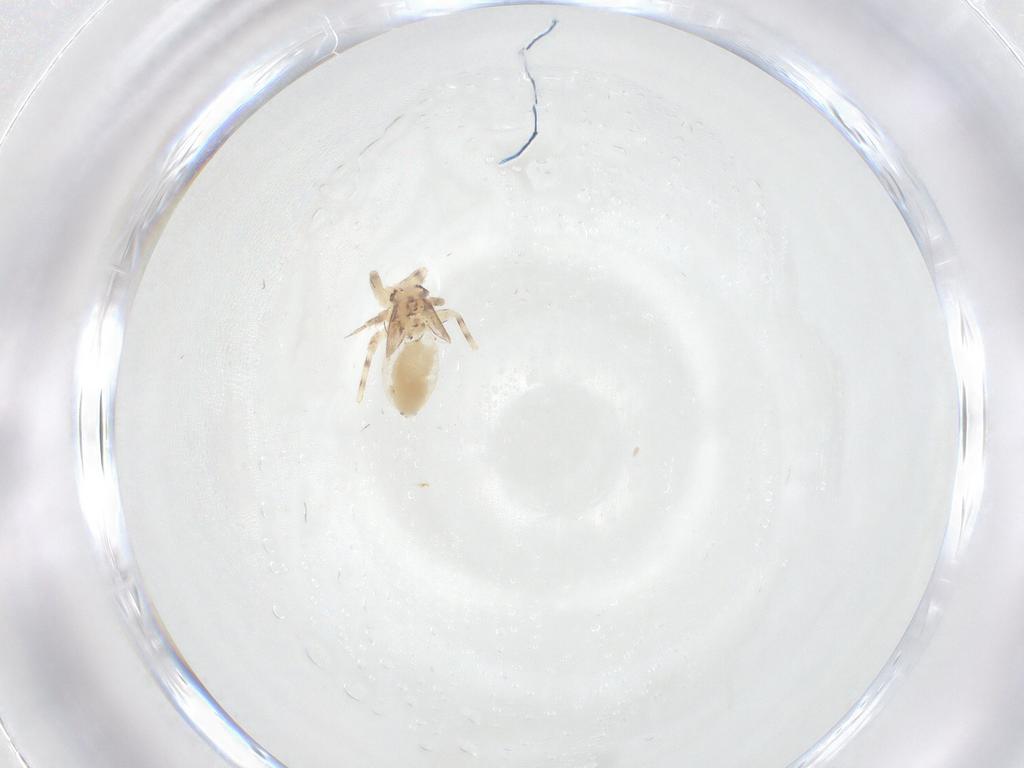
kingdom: Animalia
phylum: Arthropoda
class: Insecta
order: Psocodea
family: Lepidopsocidae
